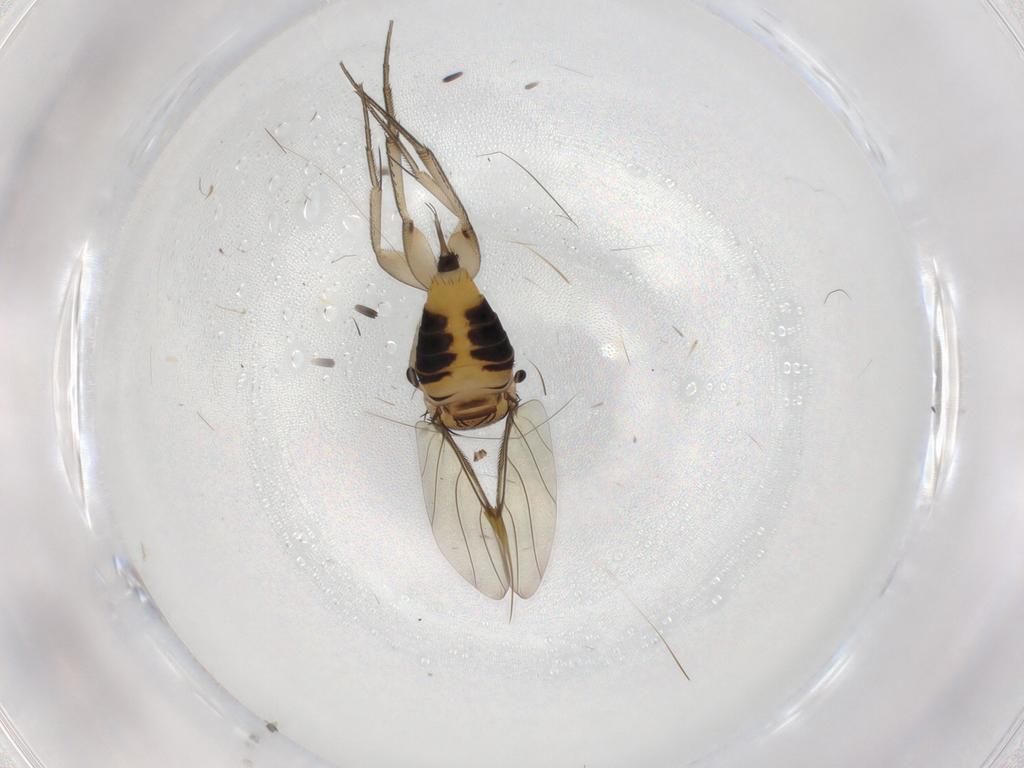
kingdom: Animalia
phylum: Arthropoda
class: Insecta
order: Diptera
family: Phoridae
